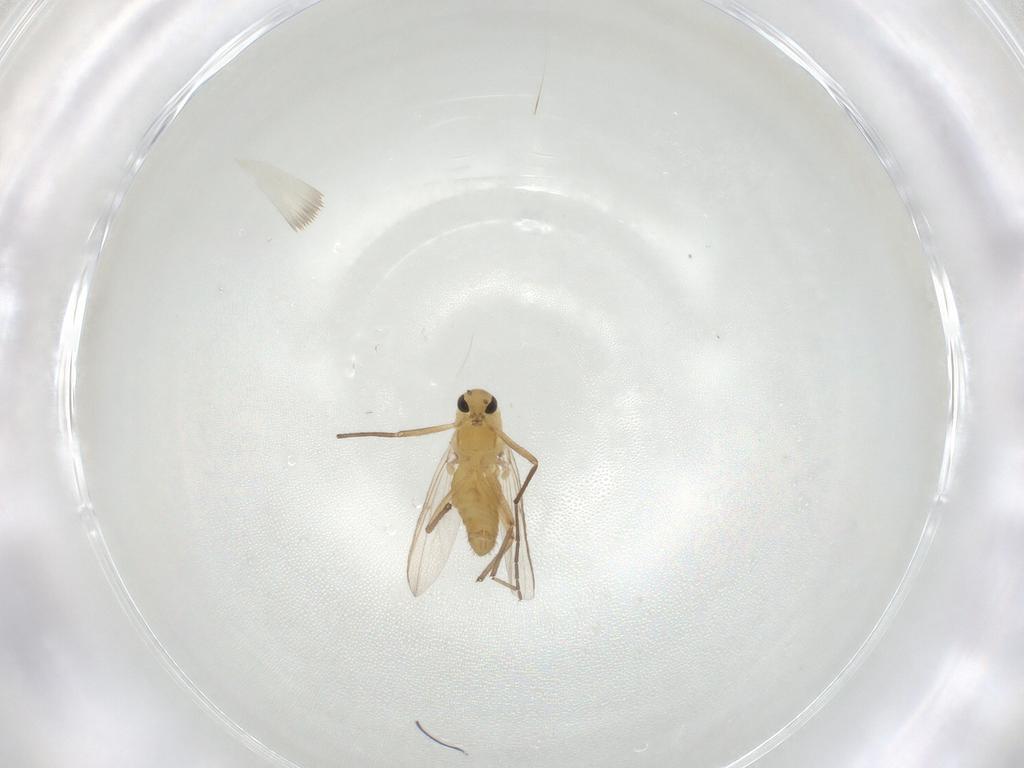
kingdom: Animalia
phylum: Arthropoda
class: Insecta
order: Diptera
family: Chironomidae
